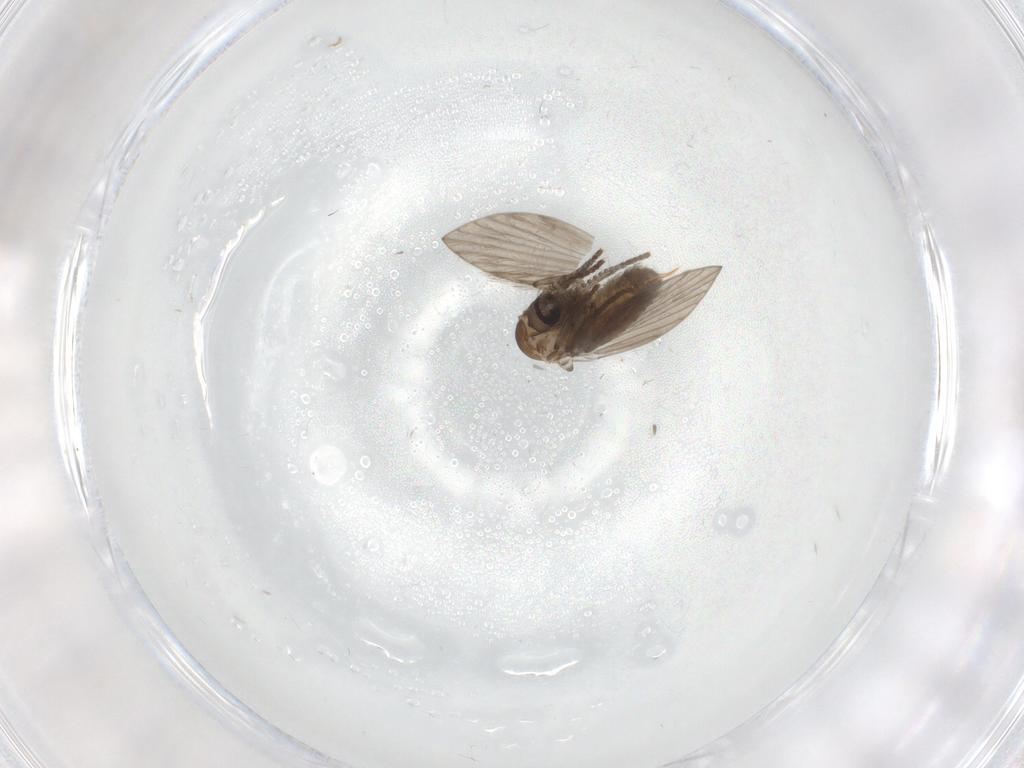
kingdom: Animalia
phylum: Arthropoda
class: Insecta
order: Diptera
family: Psychodidae
